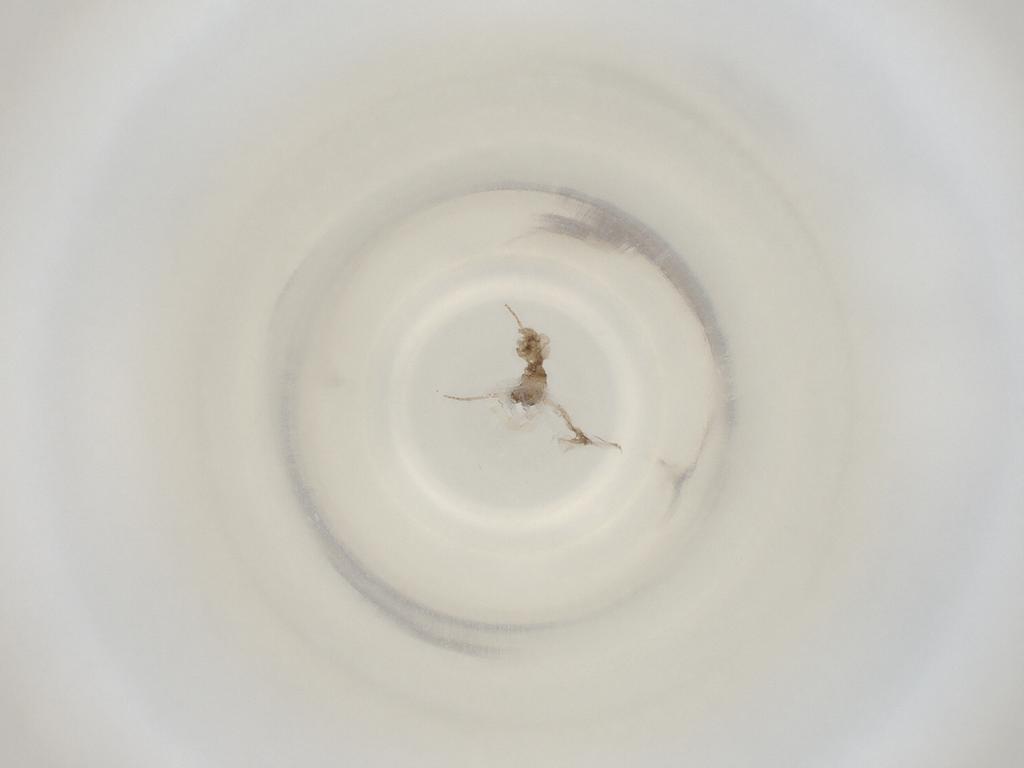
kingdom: Animalia
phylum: Arthropoda
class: Insecta
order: Diptera
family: Cecidomyiidae
